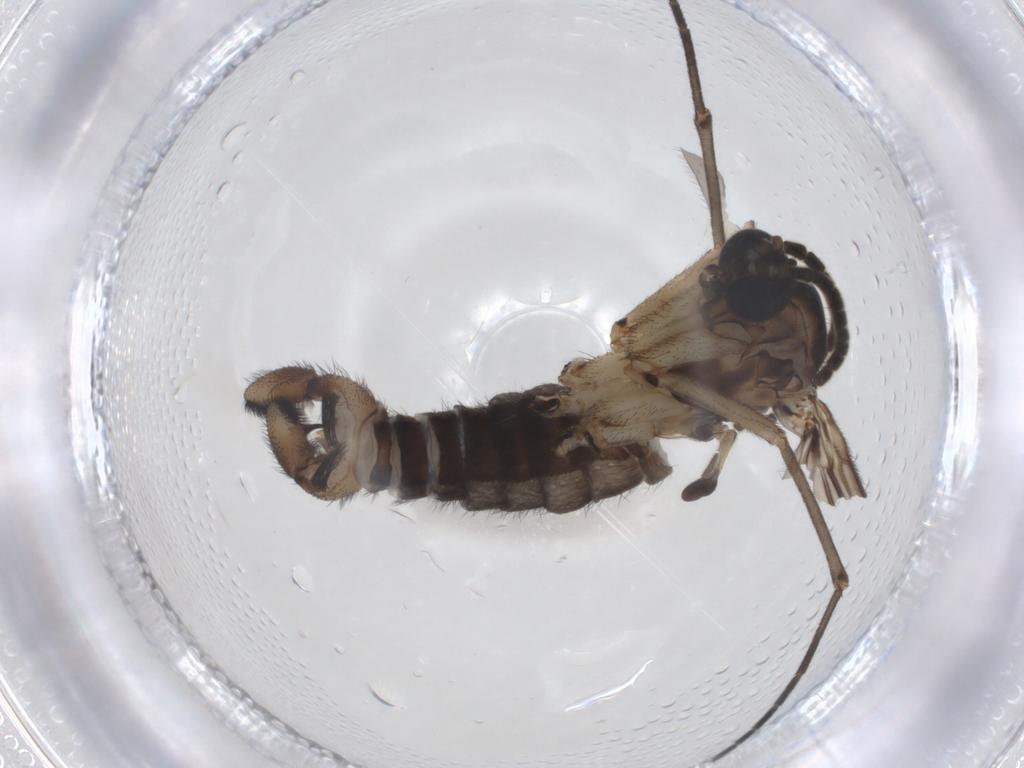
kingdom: Animalia
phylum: Arthropoda
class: Insecta
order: Diptera
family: Sciaridae
